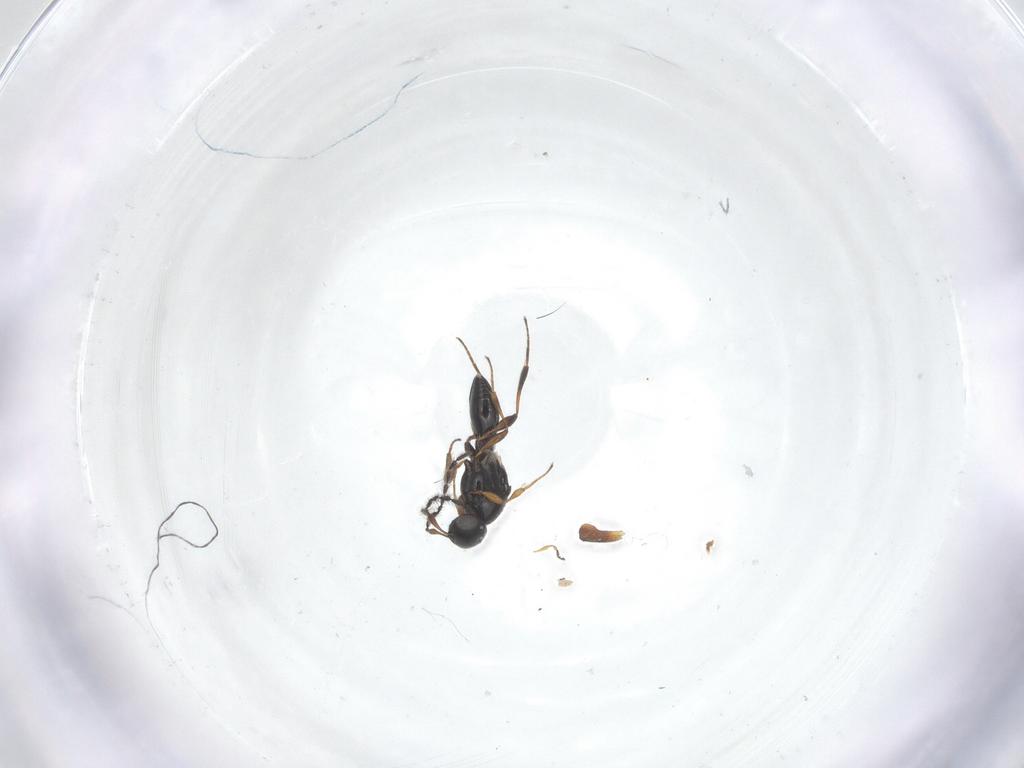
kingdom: Animalia
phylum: Arthropoda
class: Insecta
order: Hymenoptera
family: Platygastridae
